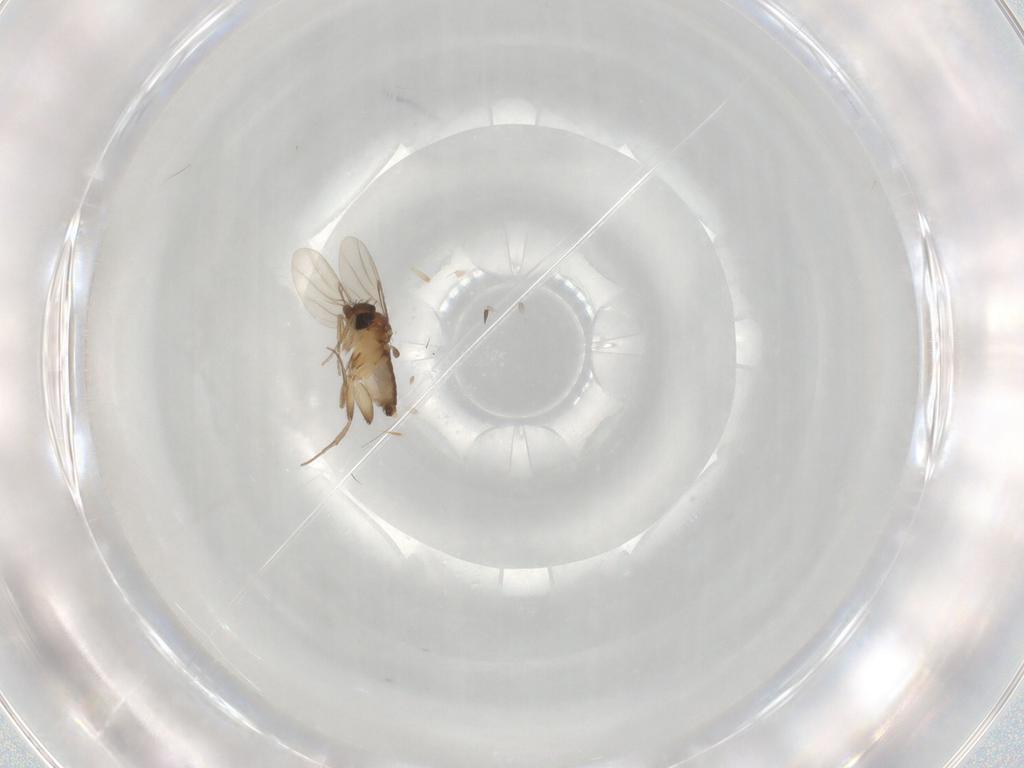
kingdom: Animalia
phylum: Arthropoda
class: Insecta
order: Diptera
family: Phoridae
